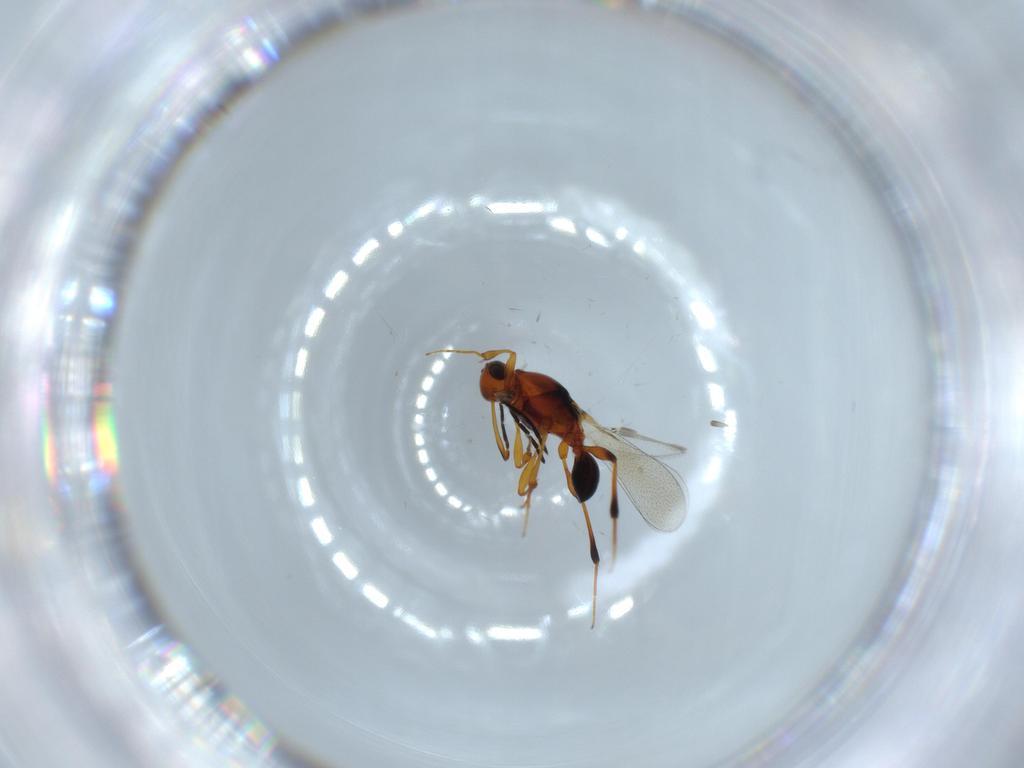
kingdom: Animalia
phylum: Arthropoda
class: Insecta
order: Hymenoptera
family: Platygastridae
